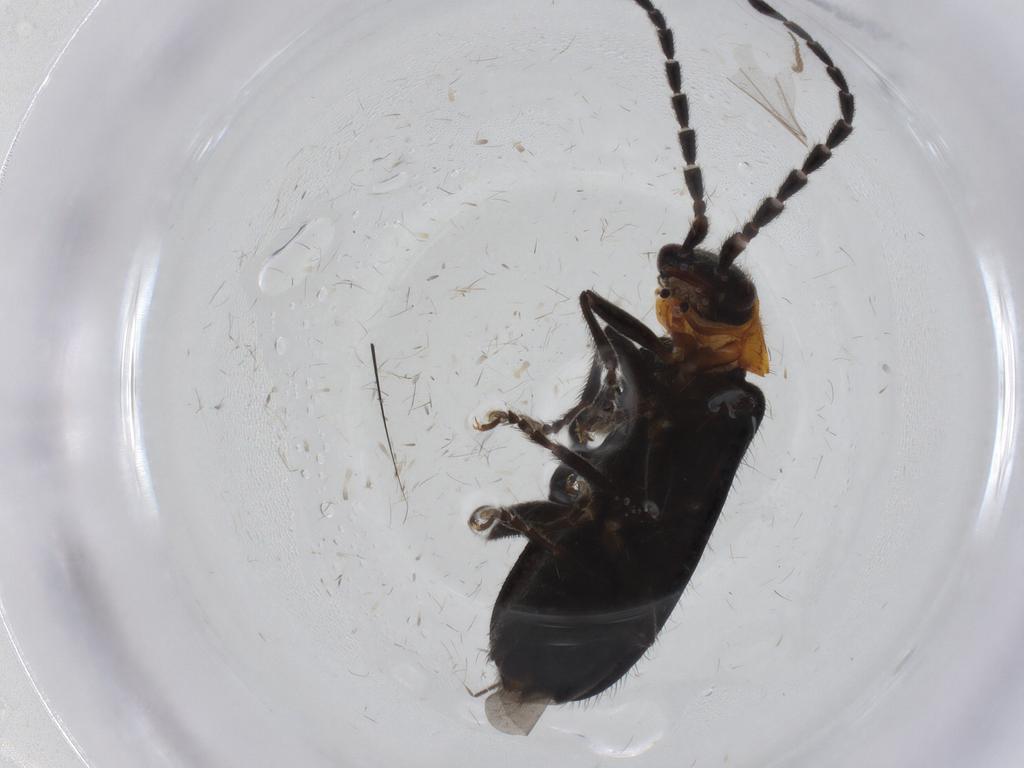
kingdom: Animalia
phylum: Arthropoda
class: Insecta
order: Coleoptera
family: Cantharidae
